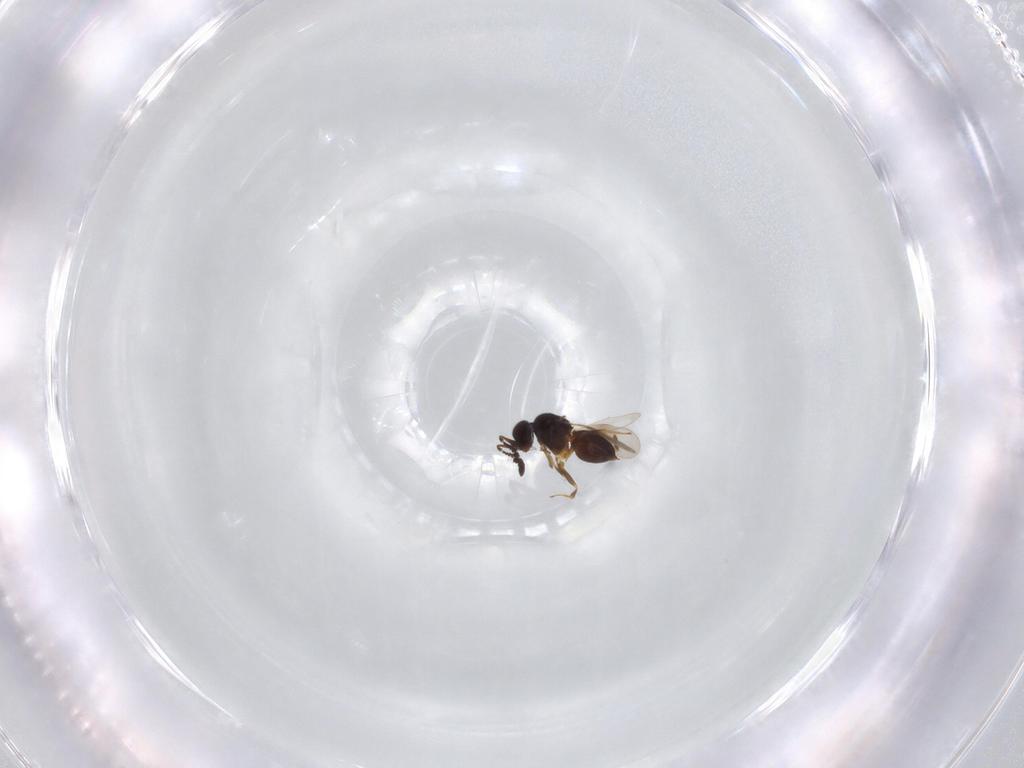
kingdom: Animalia
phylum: Arthropoda
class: Insecta
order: Hymenoptera
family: Ceraphronidae
